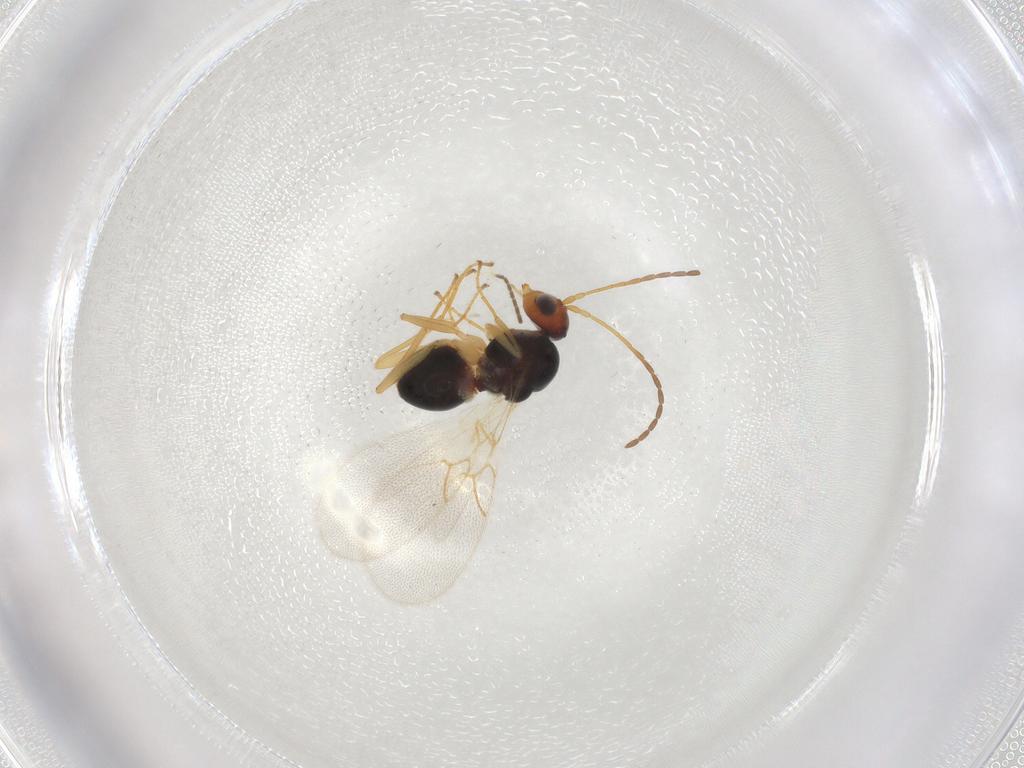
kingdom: Animalia
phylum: Arthropoda
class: Insecta
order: Hymenoptera
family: Figitidae
